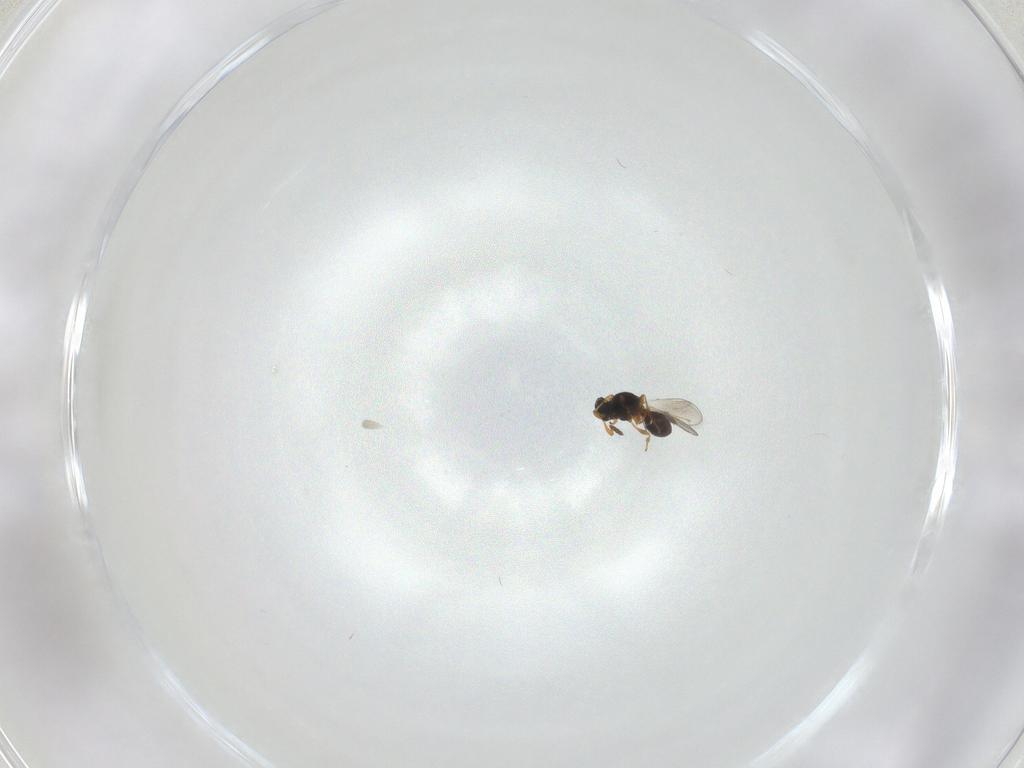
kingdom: Animalia
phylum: Arthropoda
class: Insecta
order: Hymenoptera
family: Platygastridae
